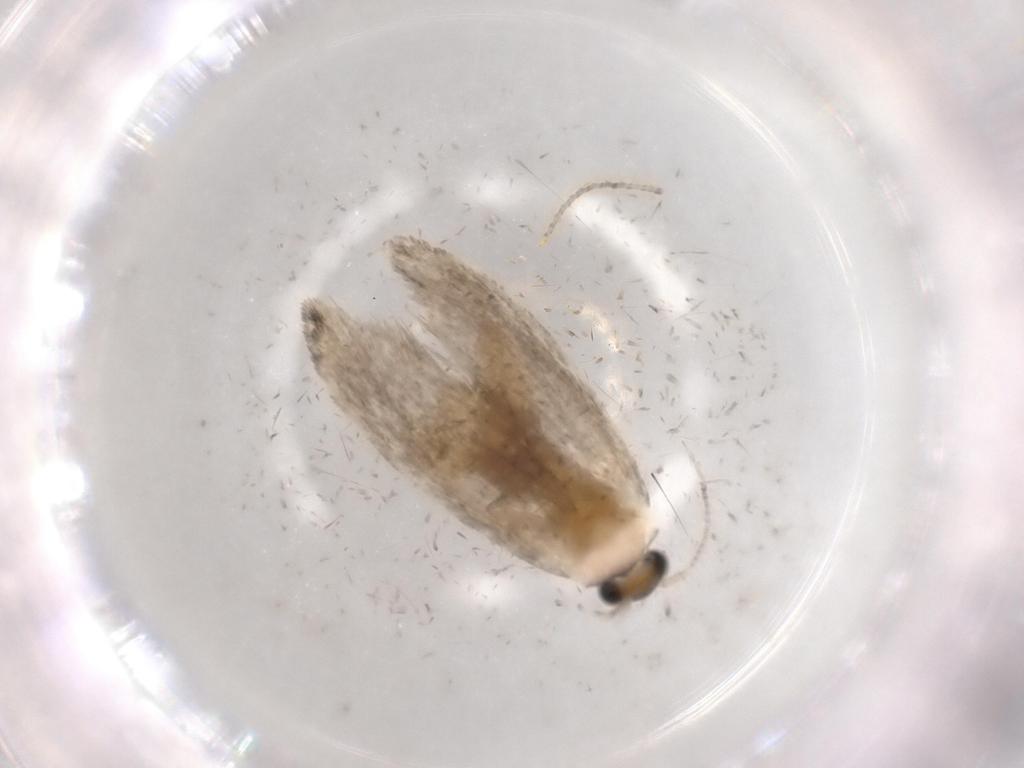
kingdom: Animalia
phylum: Arthropoda
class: Insecta
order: Lepidoptera
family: Tineidae
